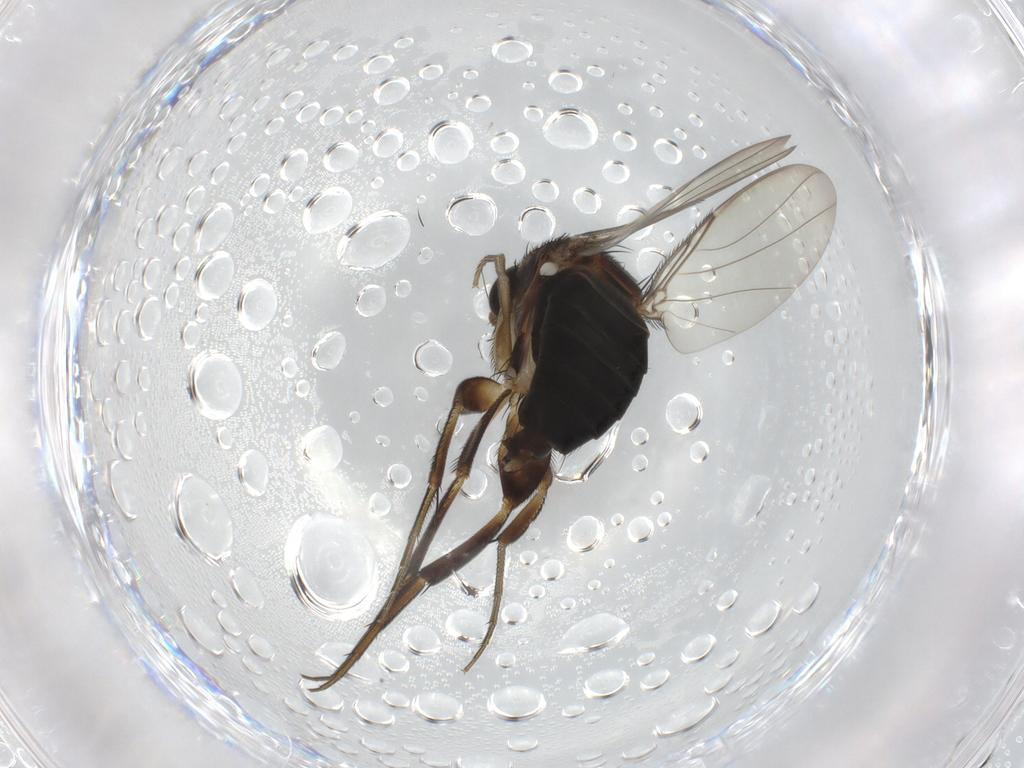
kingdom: Animalia
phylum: Arthropoda
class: Insecta
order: Diptera
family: Phoridae
